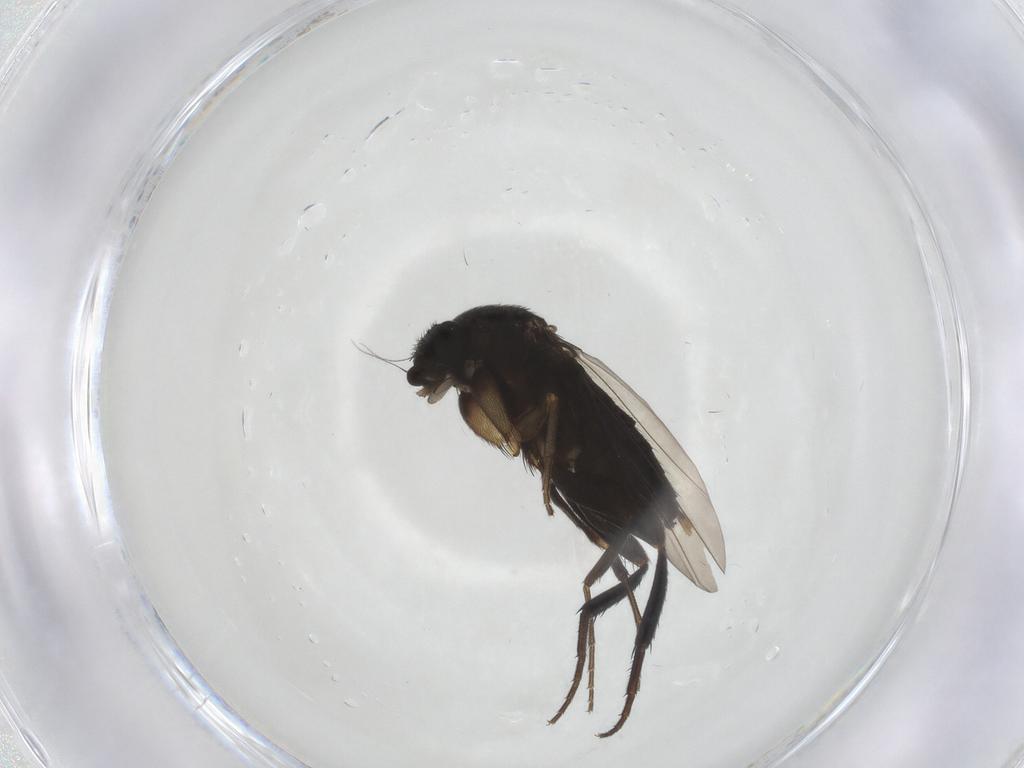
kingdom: Animalia
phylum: Arthropoda
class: Insecta
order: Diptera
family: Phoridae
